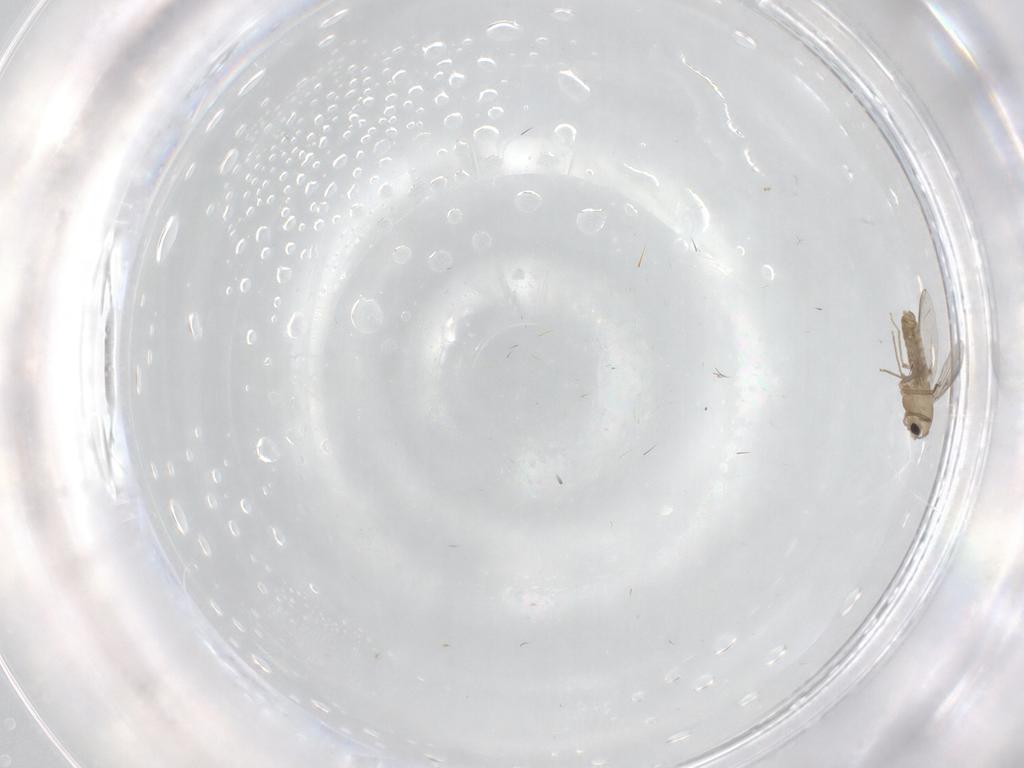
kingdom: Animalia
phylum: Arthropoda
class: Insecta
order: Diptera
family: Chironomidae
